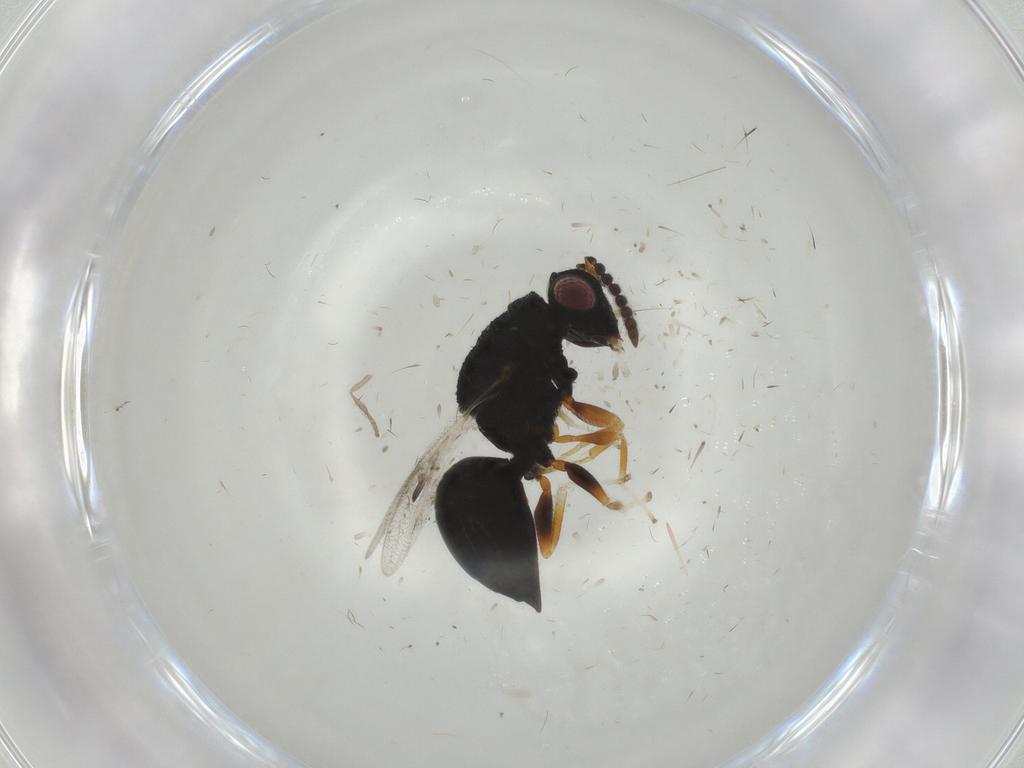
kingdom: Animalia
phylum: Arthropoda
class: Insecta
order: Hymenoptera
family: Eurytomidae
